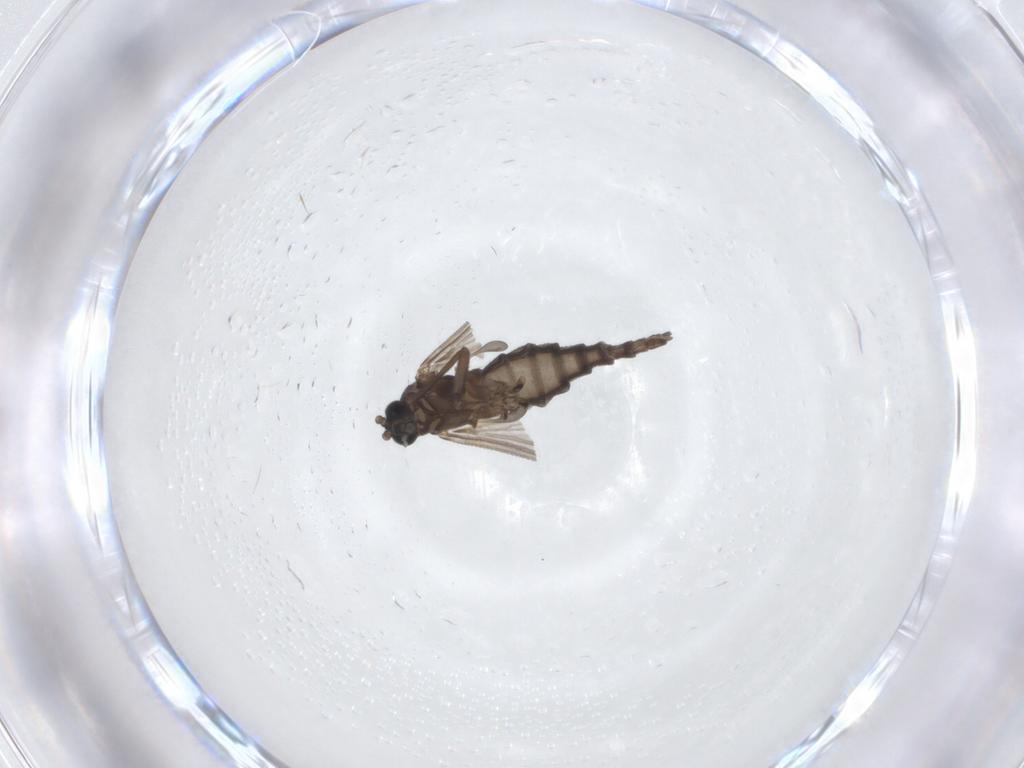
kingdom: Animalia
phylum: Arthropoda
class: Insecta
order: Diptera
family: Sciaridae
